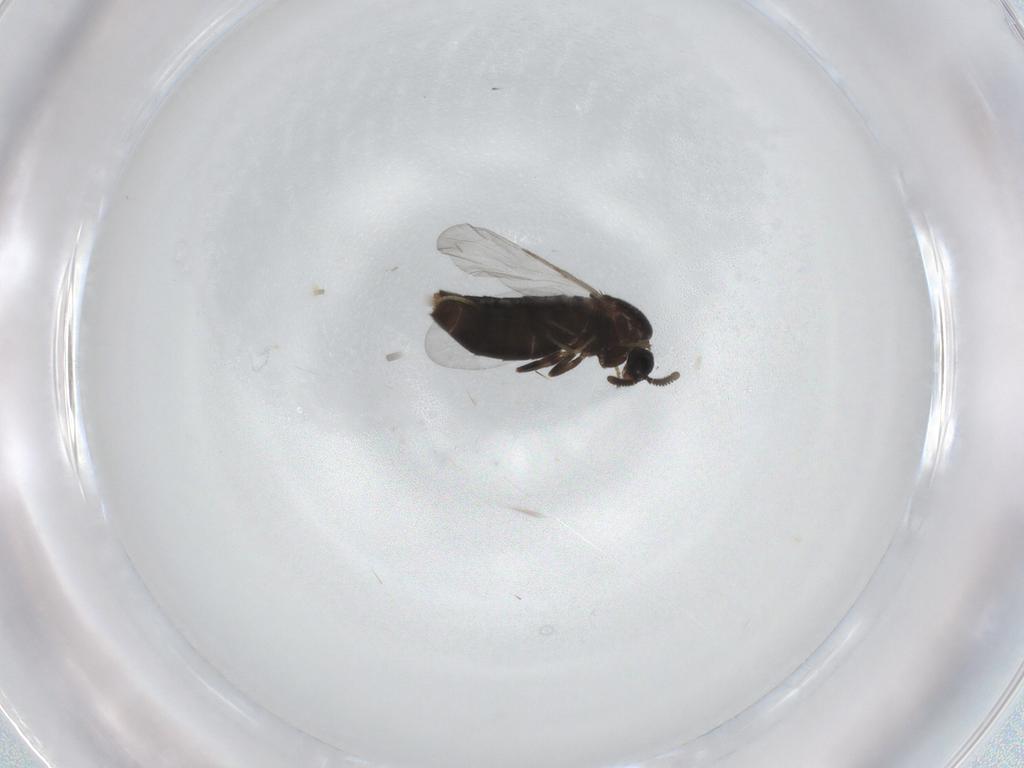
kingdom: Animalia
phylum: Arthropoda
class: Insecta
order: Diptera
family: Scatopsidae
